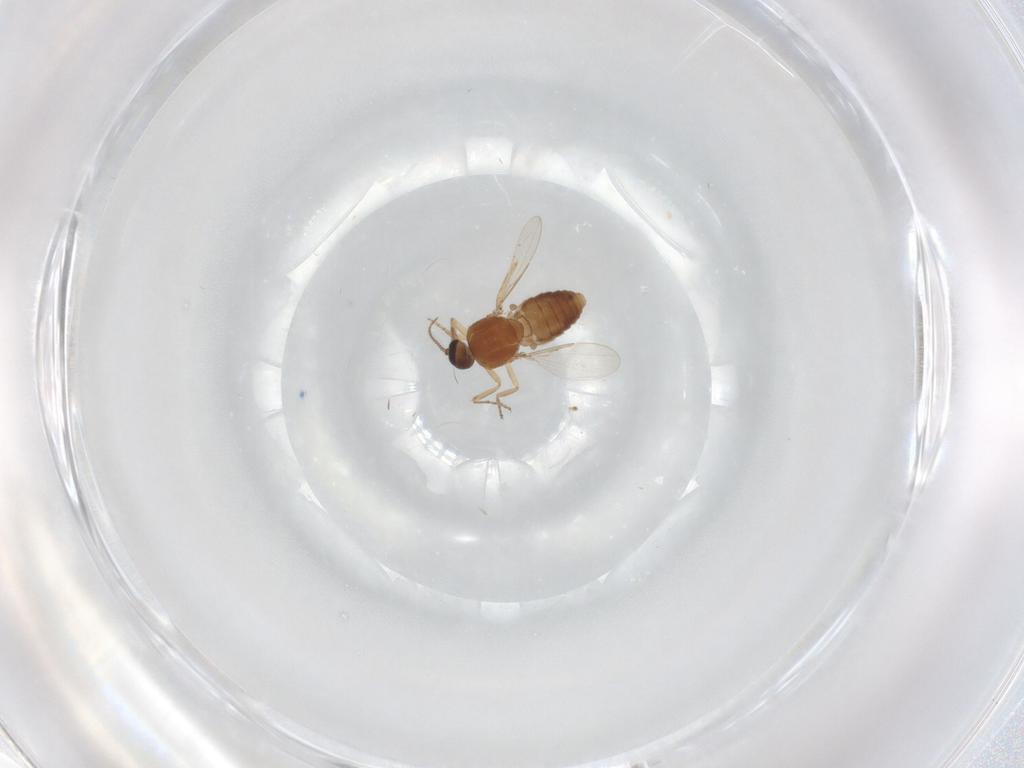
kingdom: Animalia
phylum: Arthropoda
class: Insecta
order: Diptera
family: Ceratopogonidae
